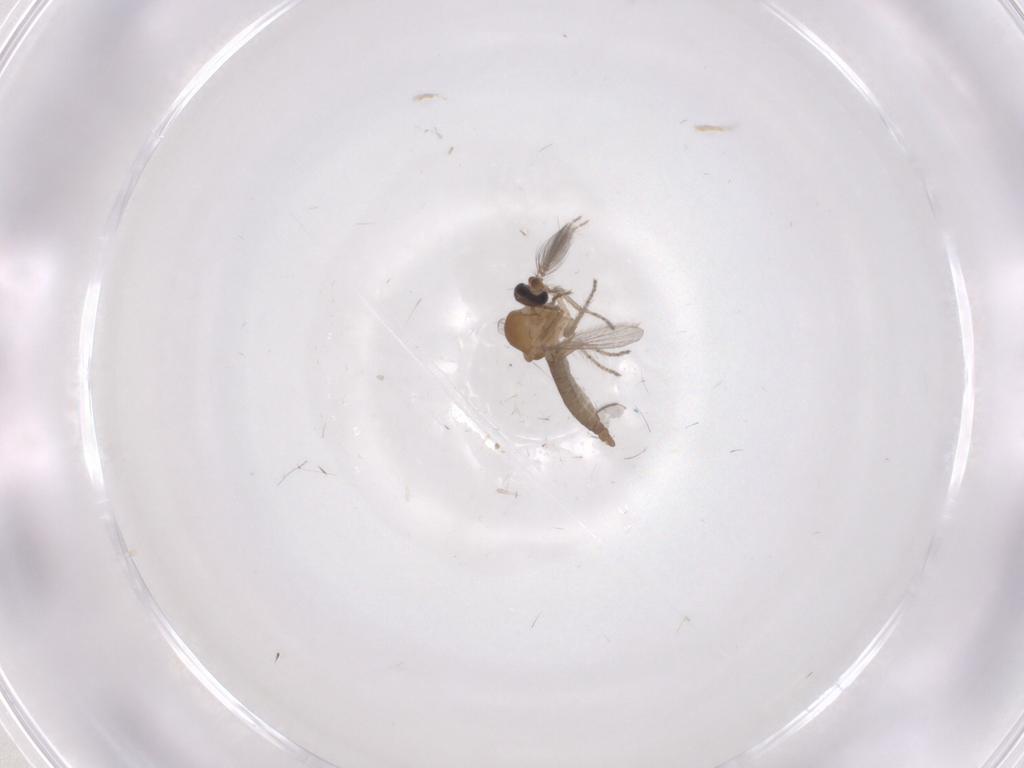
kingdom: Animalia
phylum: Arthropoda
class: Insecta
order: Diptera
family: Ceratopogonidae
